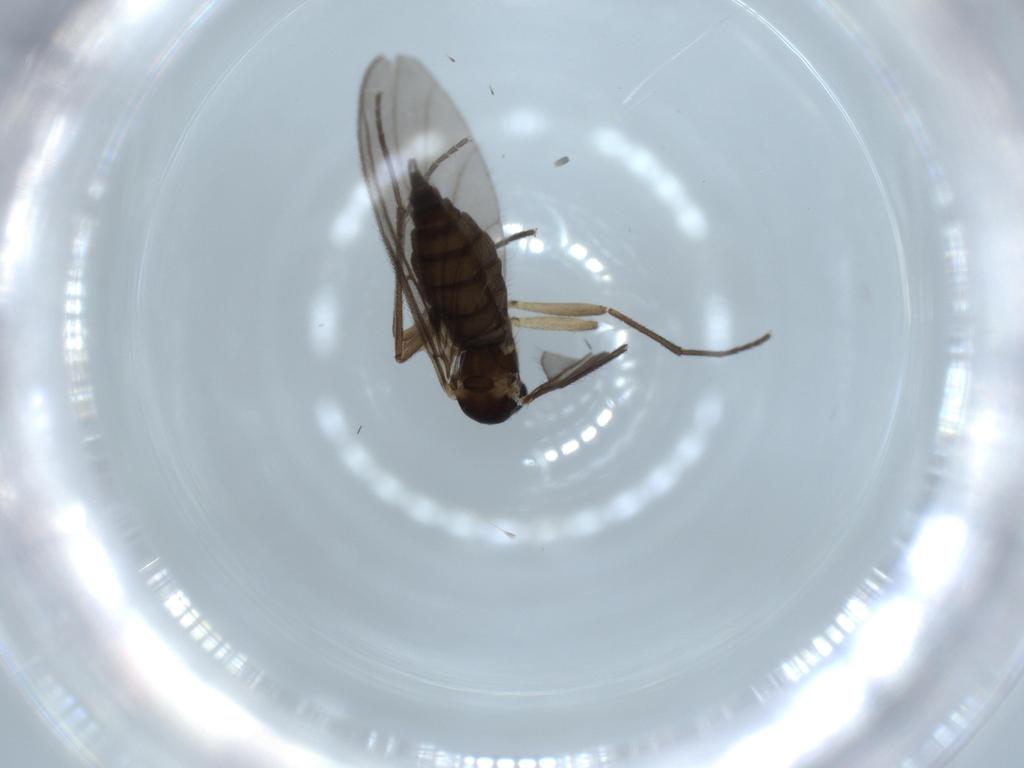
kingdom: Animalia
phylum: Arthropoda
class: Insecta
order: Diptera
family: Sciaridae
